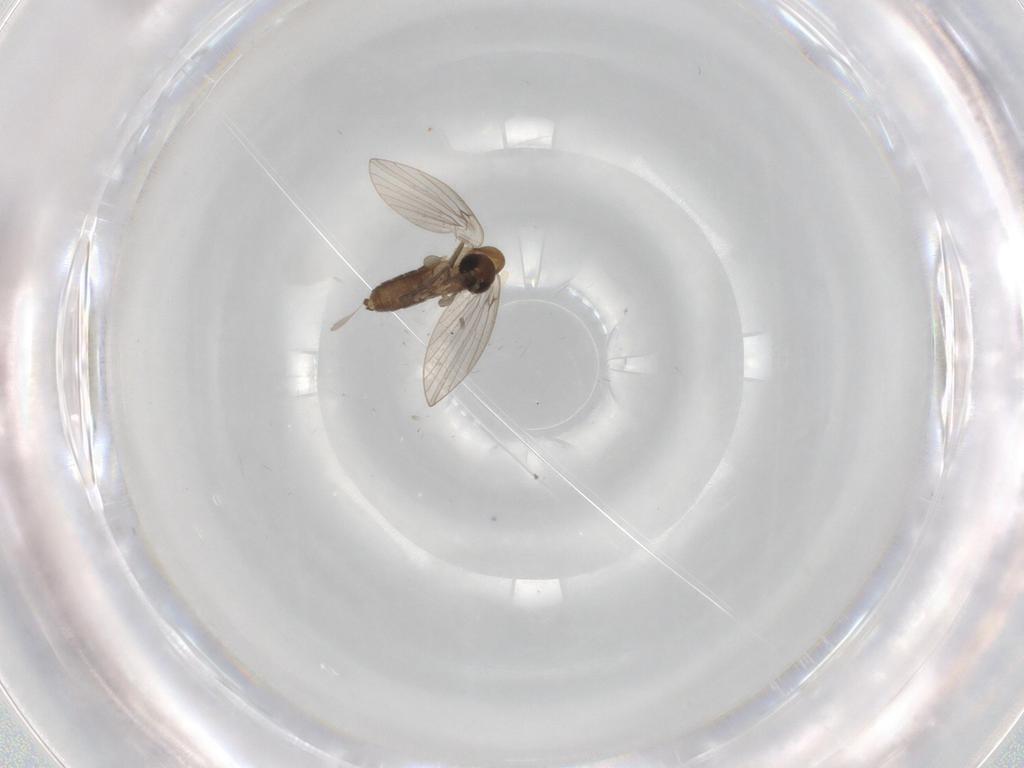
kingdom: Animalia
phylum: Arthropoda
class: Insecta
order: Diptera
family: Psychodidae
